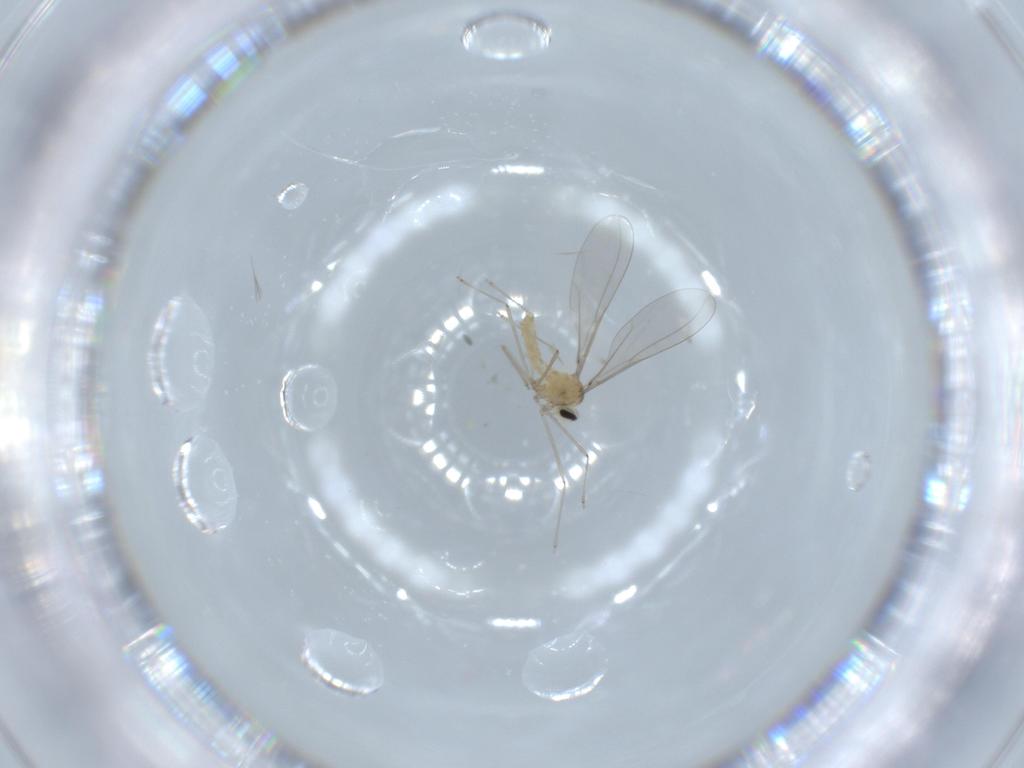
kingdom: Animalia
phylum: Arthropoda
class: Insecta
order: Diptera
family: Cecidomyiidae
